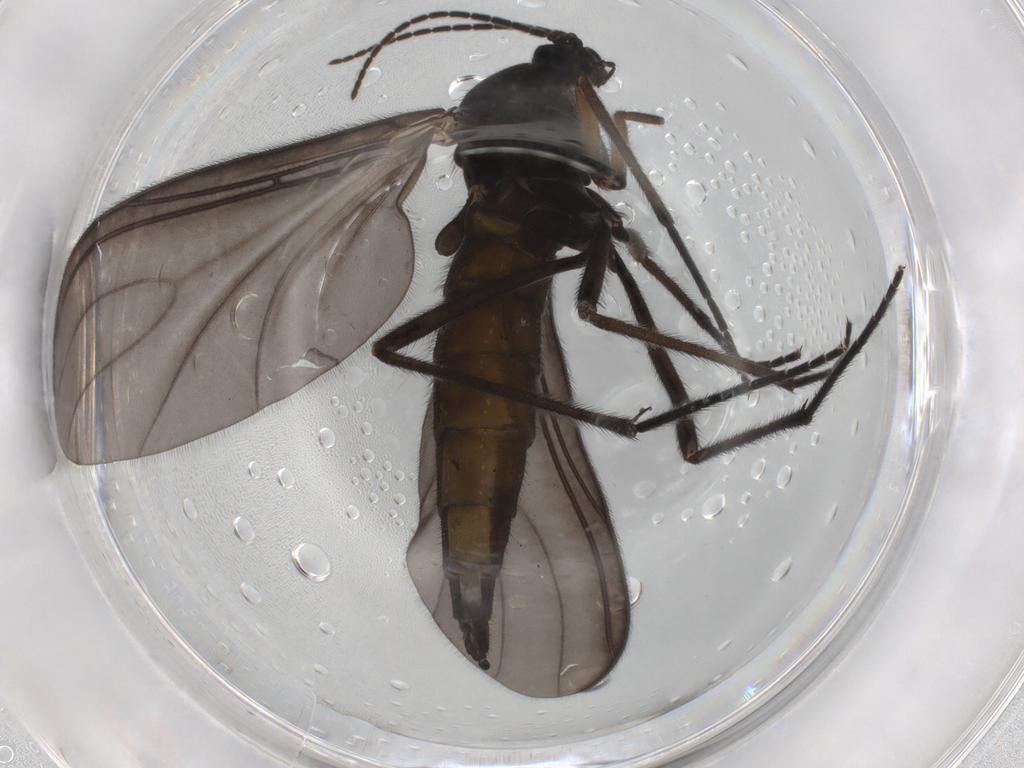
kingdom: Animalia
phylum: Arthropoda
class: Insecta
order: Diptera
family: Sciaridae
